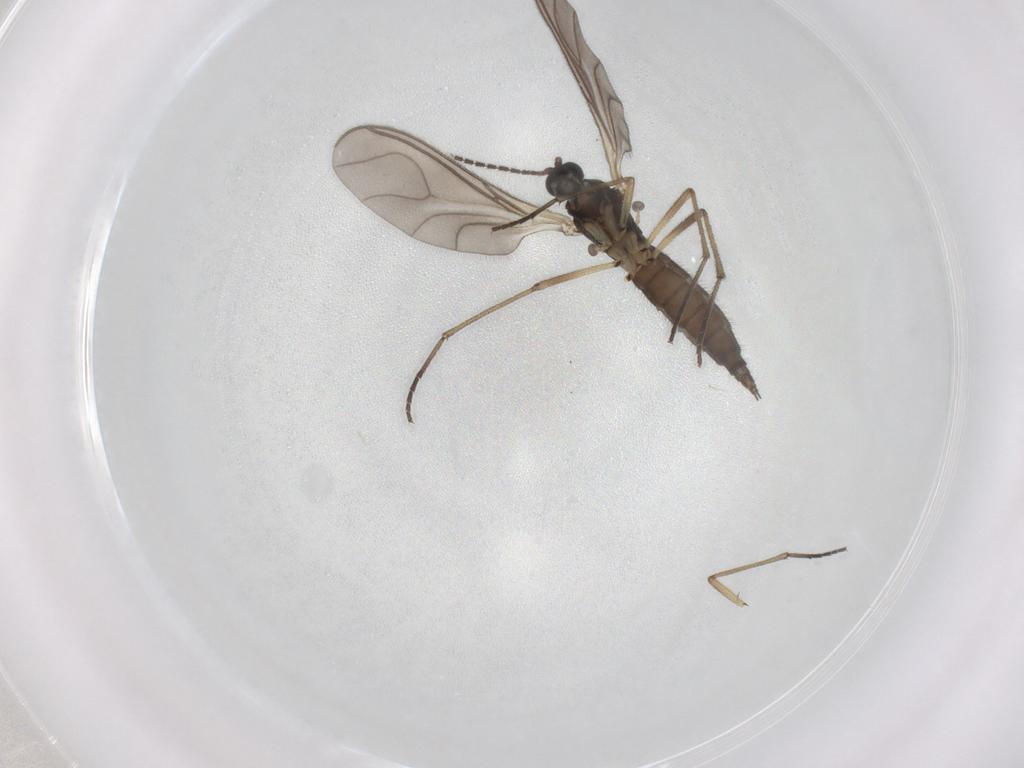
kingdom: Animalia
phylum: Arthropoda
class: Insecta
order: Diptera
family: Sciaridae
